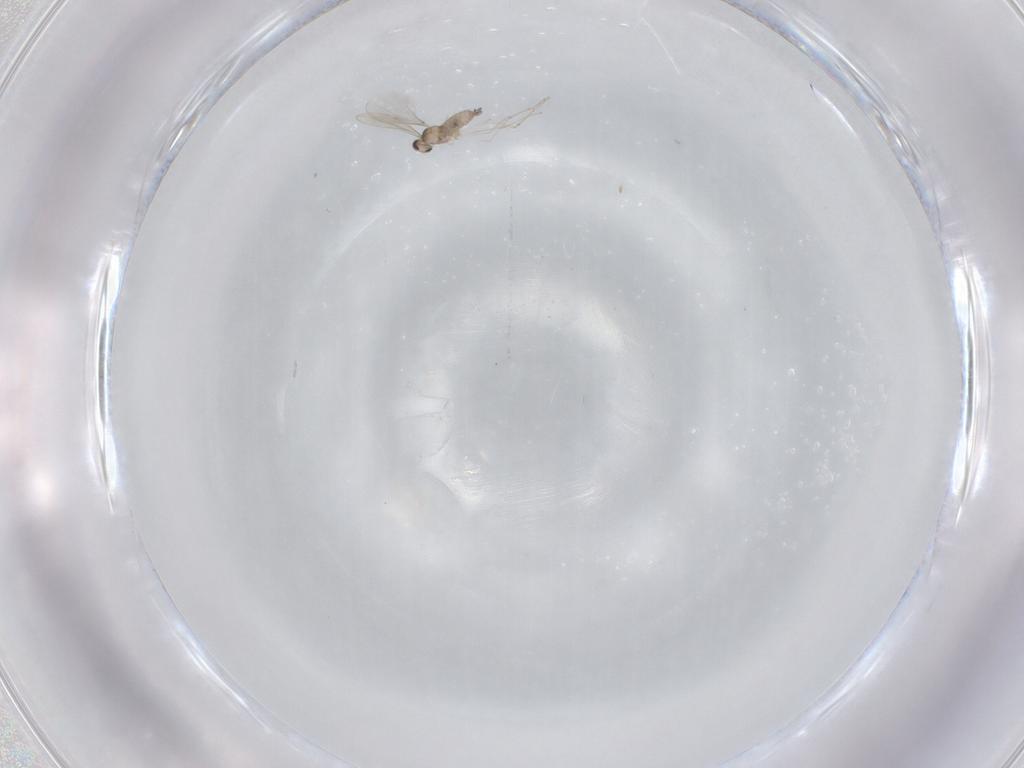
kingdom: Animalia
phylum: Arthropoda
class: Insecta
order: Diptera
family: Cecidomyiidae
